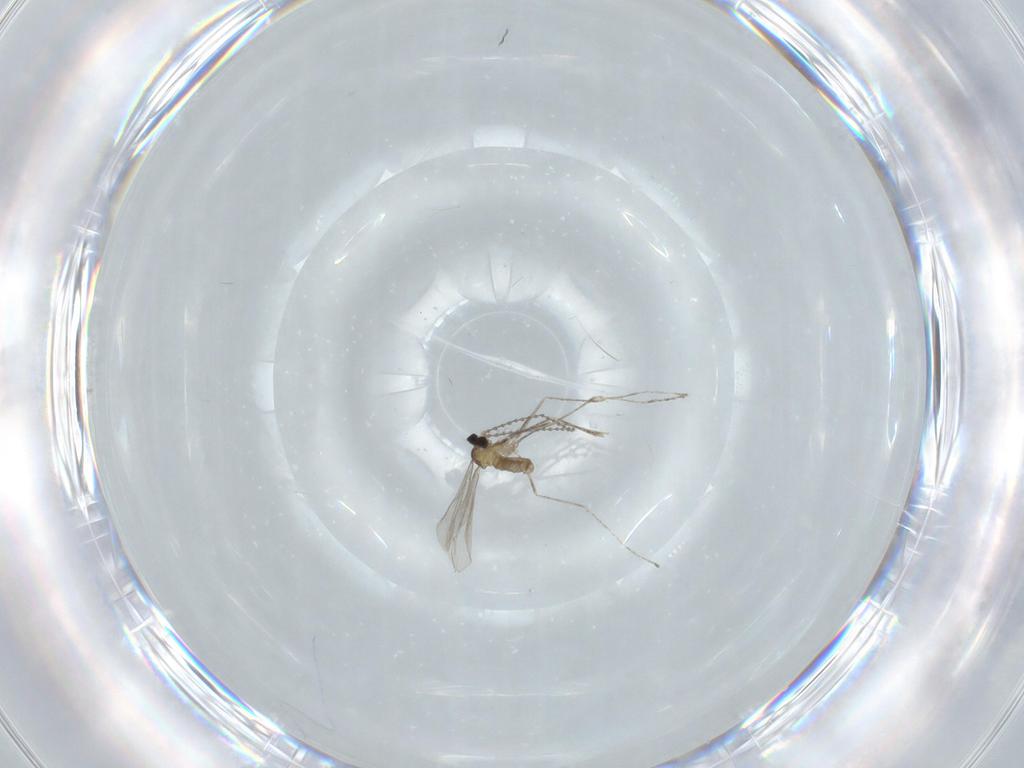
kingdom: Animalia
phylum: Arthropoda
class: Insecta
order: Diptera
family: Cecidomyiidae
